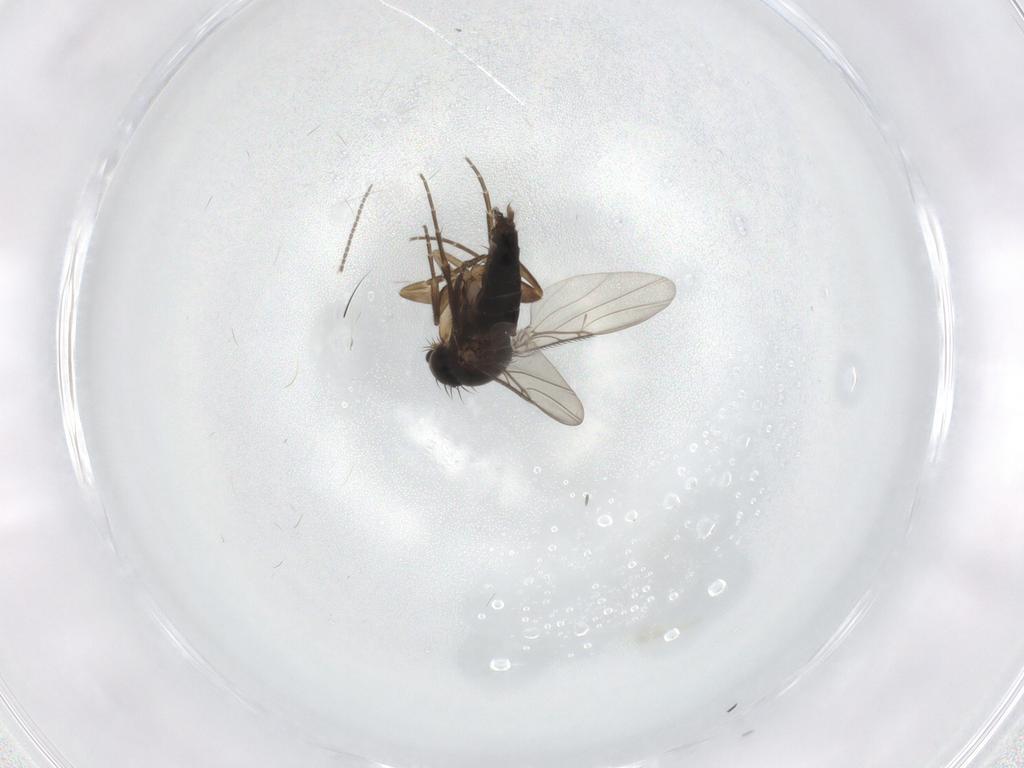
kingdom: Animalia
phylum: Arthropoda
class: Insecta
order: Diptera
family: Phoridae
